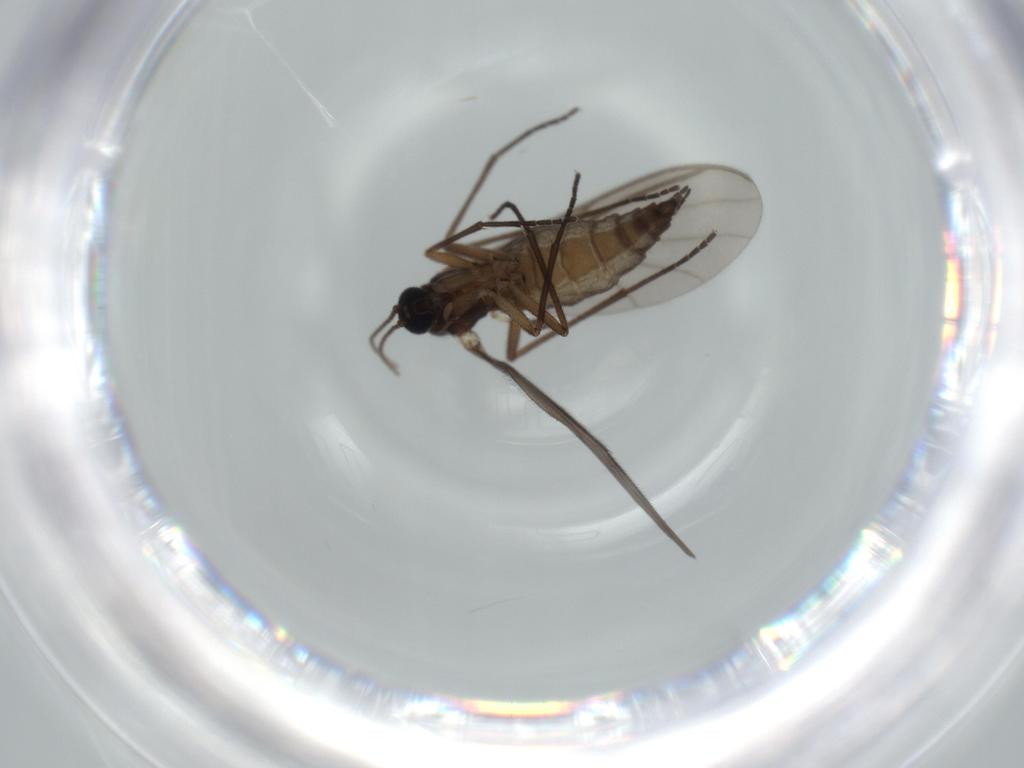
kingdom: Animalia
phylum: Arthropoda
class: Insecta
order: Diptera
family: Sciaridae
